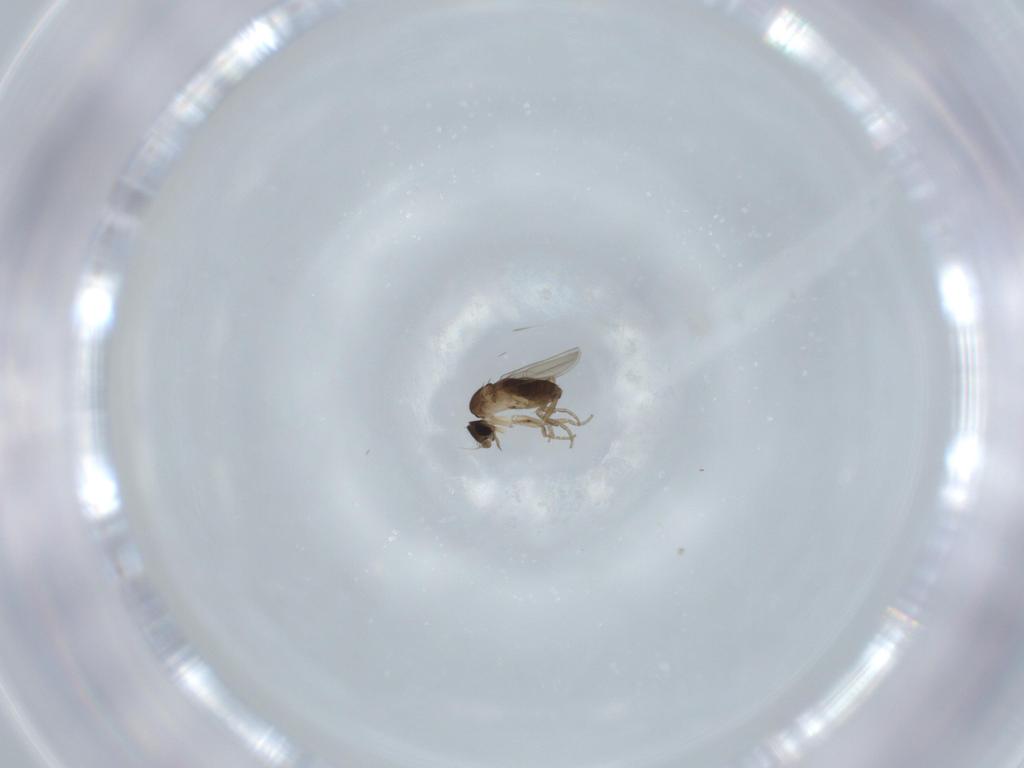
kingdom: Animalia
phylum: Arthropoda
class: Insecta
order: Diptera
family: Phoridae
